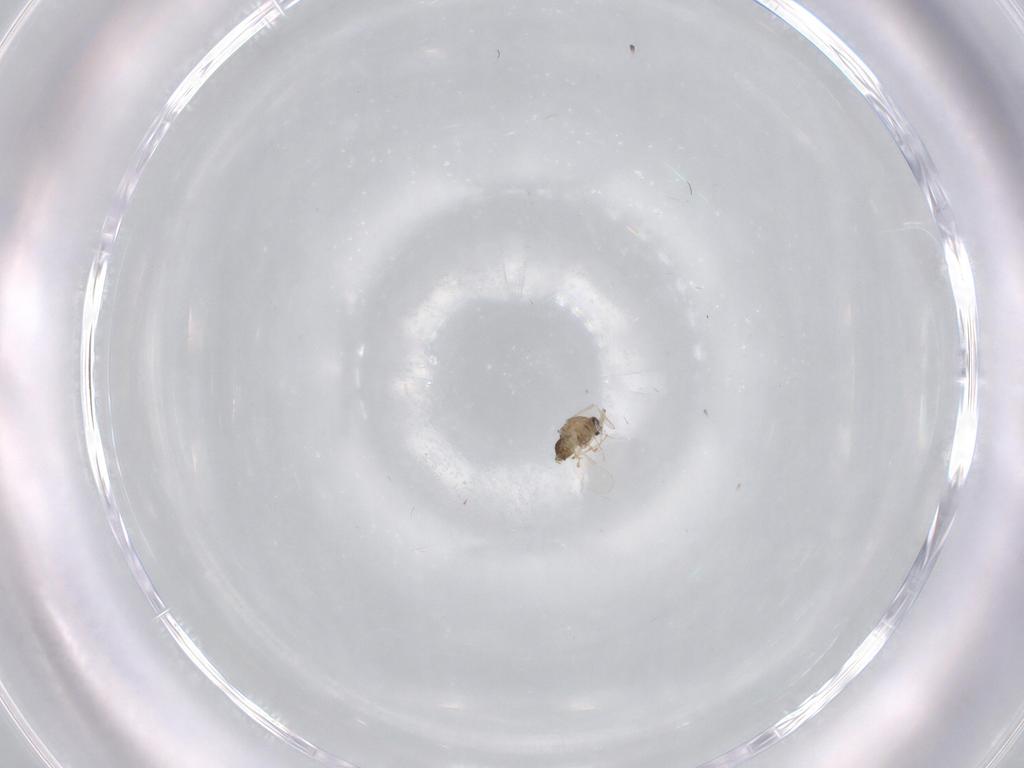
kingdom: Animalia
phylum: Arthropoda
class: Insecta
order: Diptera
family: Chironomidae
